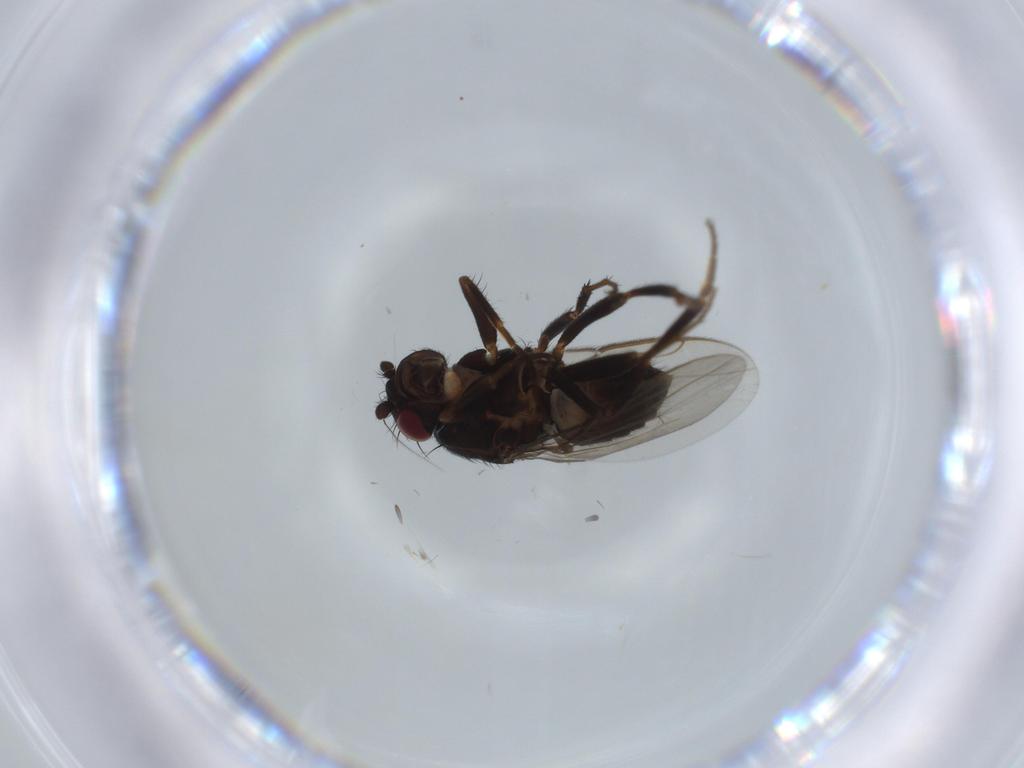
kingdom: Animalia
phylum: Arthropoda
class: Insecta
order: Diptera
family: Sphaeroceridae
